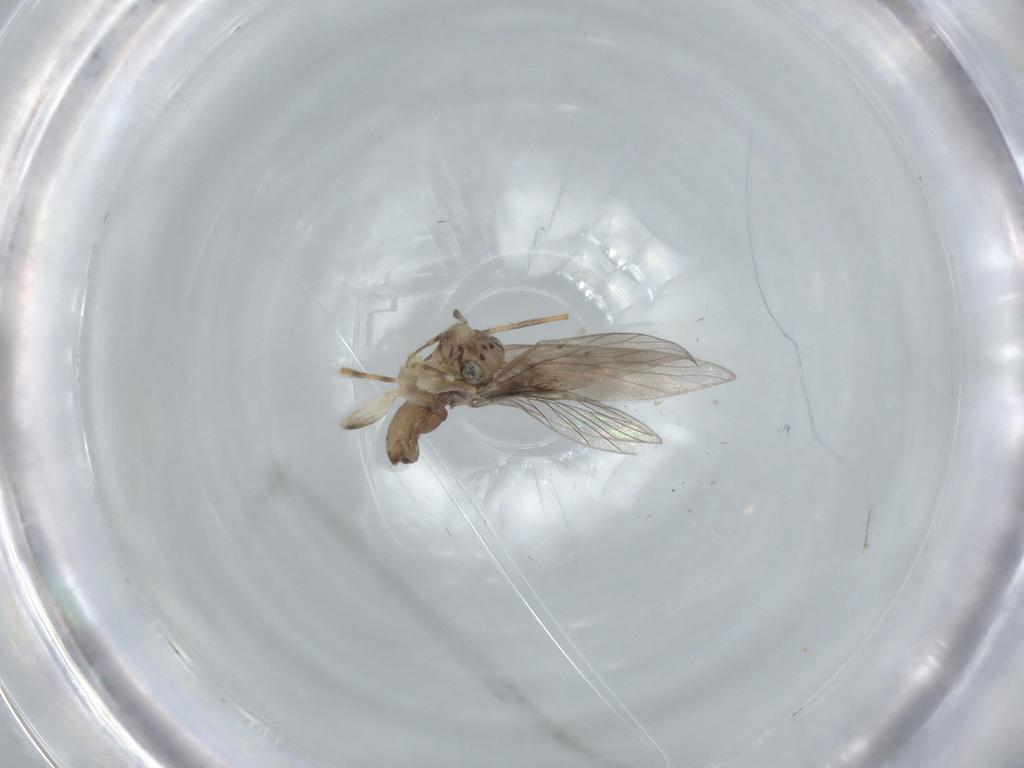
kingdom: Animalia
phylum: Arthropoda
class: Insecta
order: Psocodea
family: Lepidopsocidae
